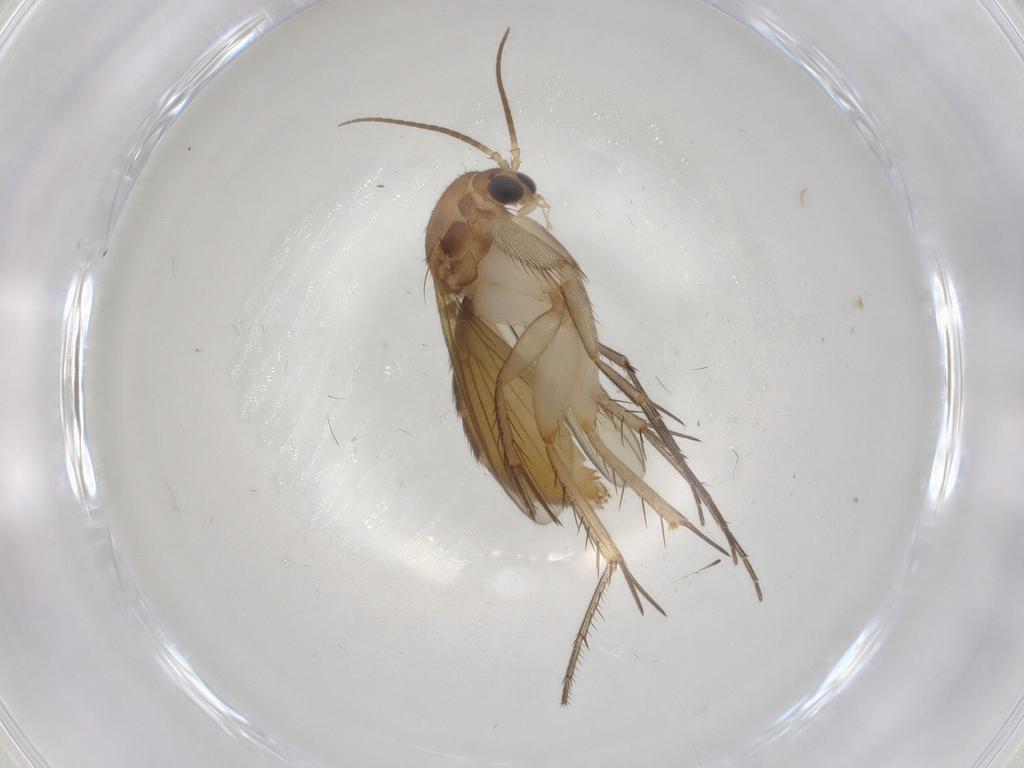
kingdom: Animalia
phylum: Arthropoda
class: Insecta
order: Diptera
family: Mycetophilidae
